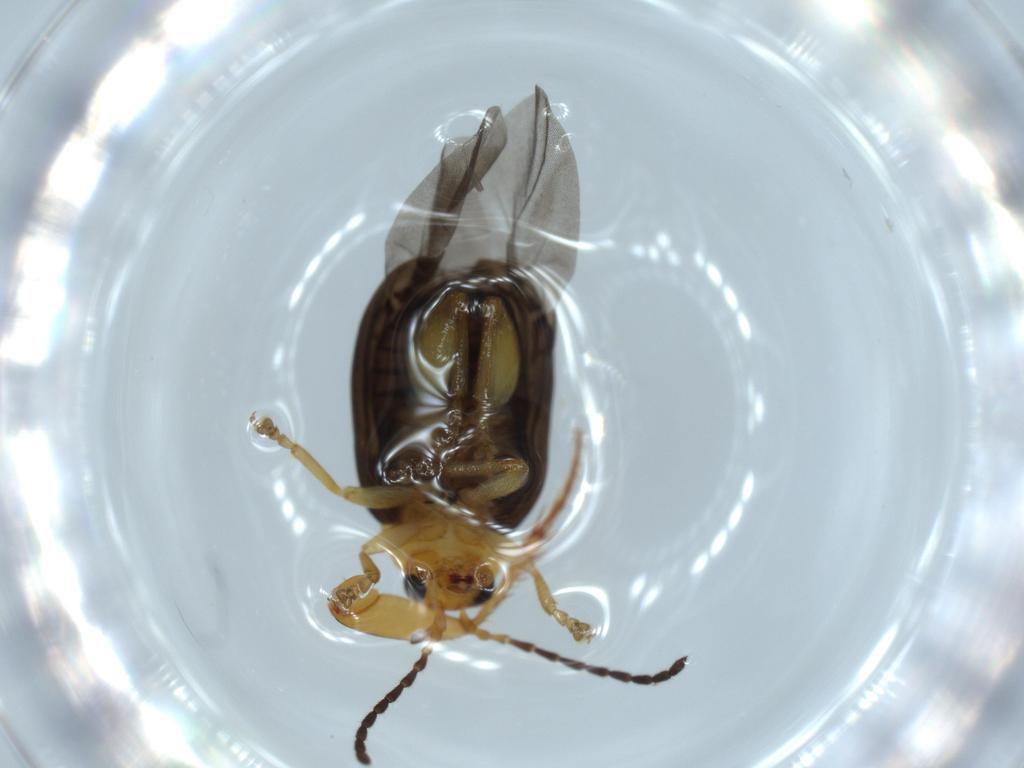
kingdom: Animalia
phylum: Arthropoda
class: Insecta
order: Coleoptera
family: Chrysomelidae
